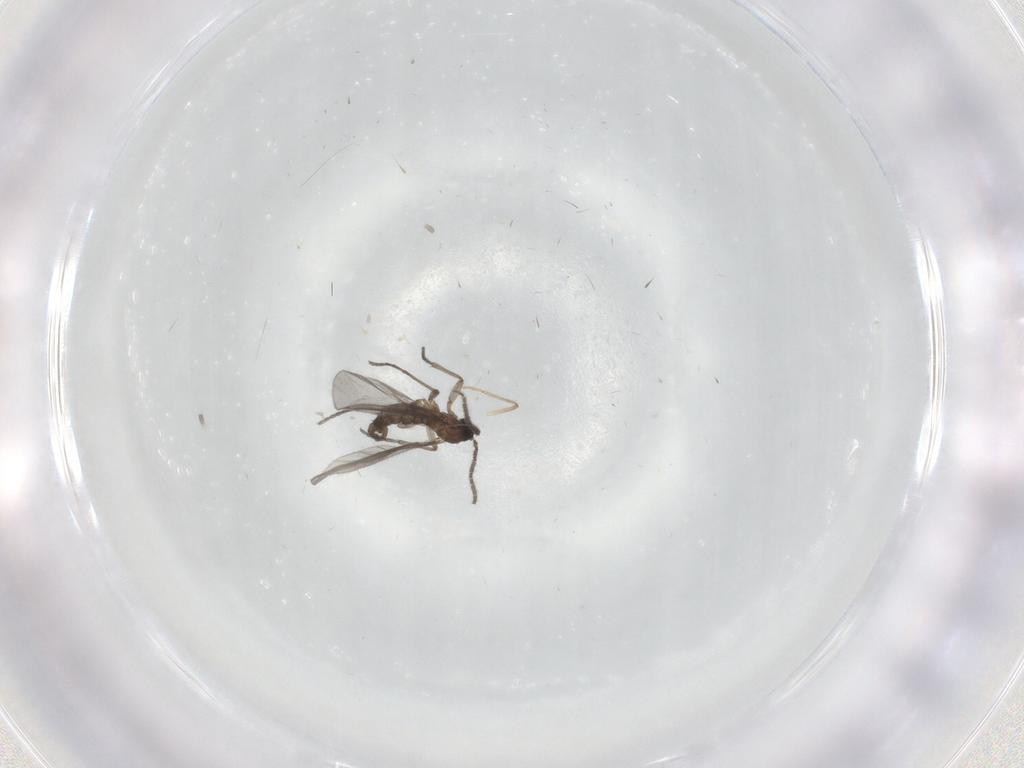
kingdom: Animalia
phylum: Arthropoda
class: Insecta
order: Diptera
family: Sciaridae
